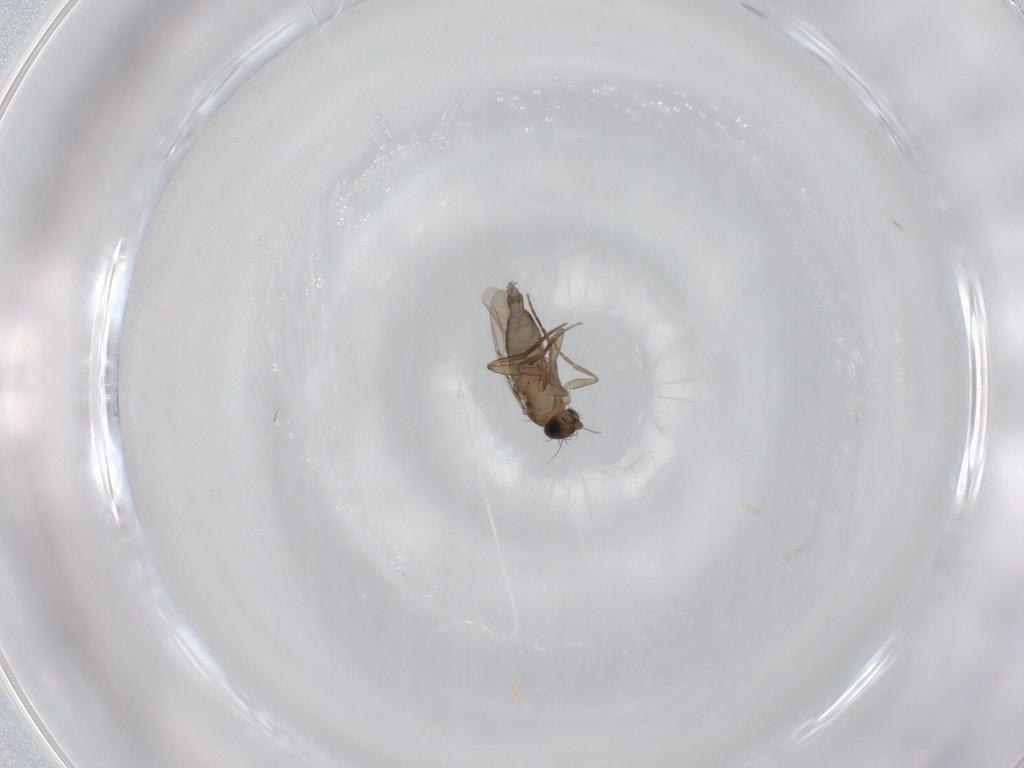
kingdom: Animalia
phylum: Arthropoda
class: Insecta
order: Diptera
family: Phoridae
